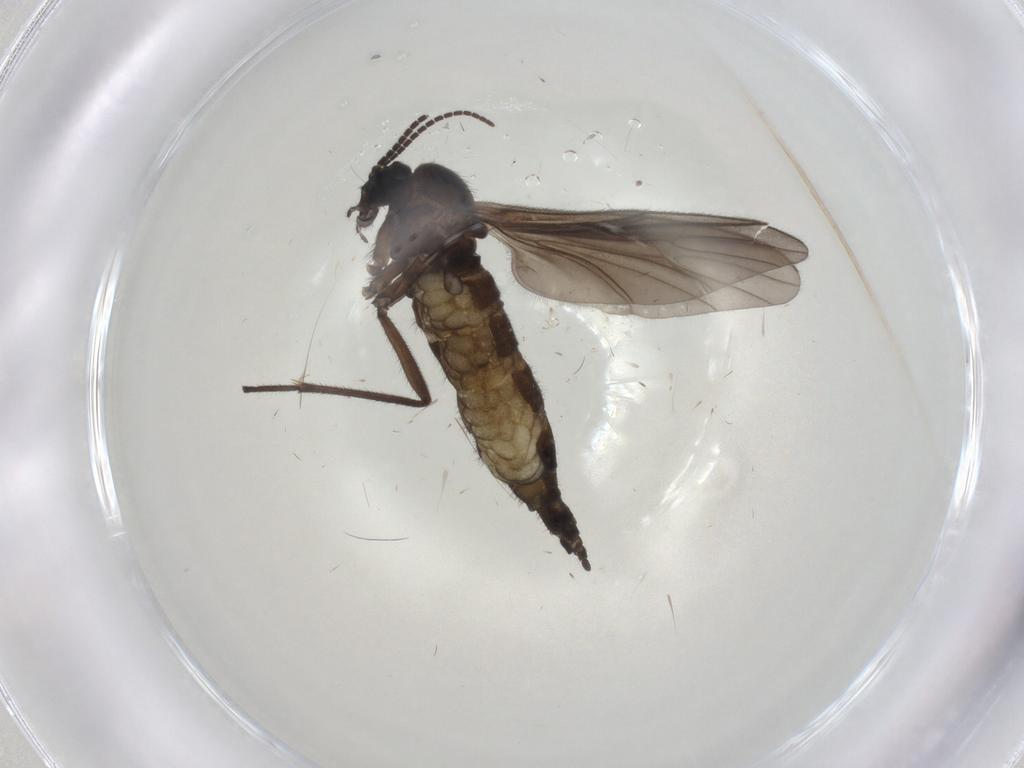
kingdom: Animalia
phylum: Arthropoda
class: Insecta
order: Diptera
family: Sciaridae
